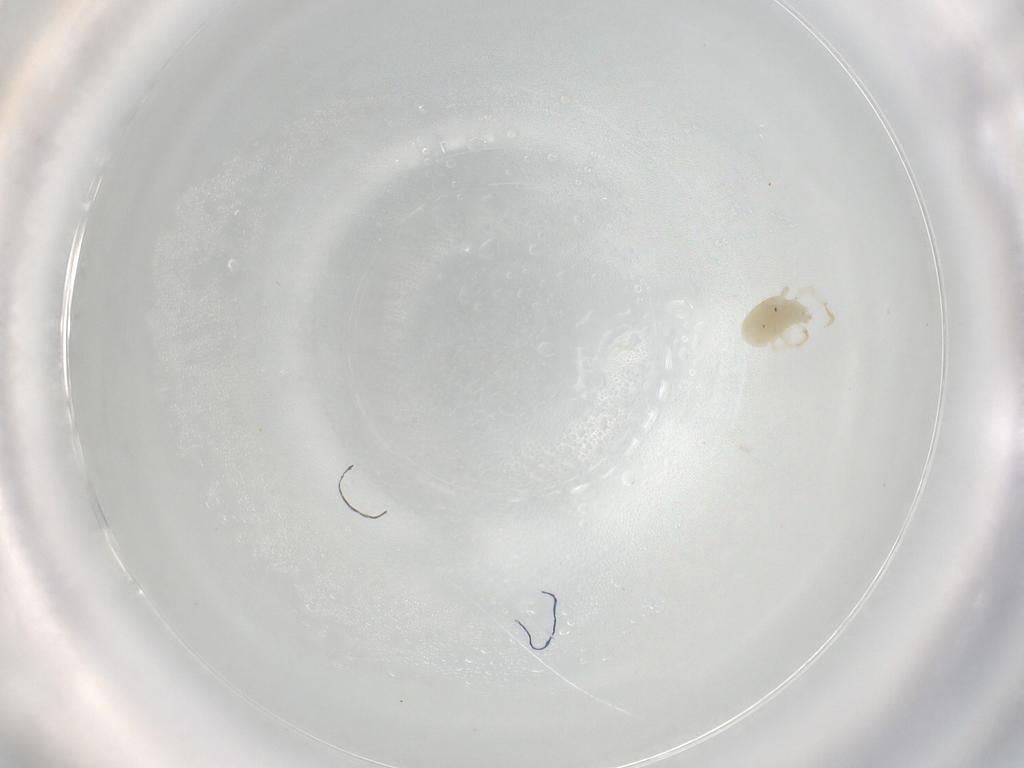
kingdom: Animalia
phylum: Arthropoda
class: Arachnida
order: Trombidiformes
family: Rhagidiidae
